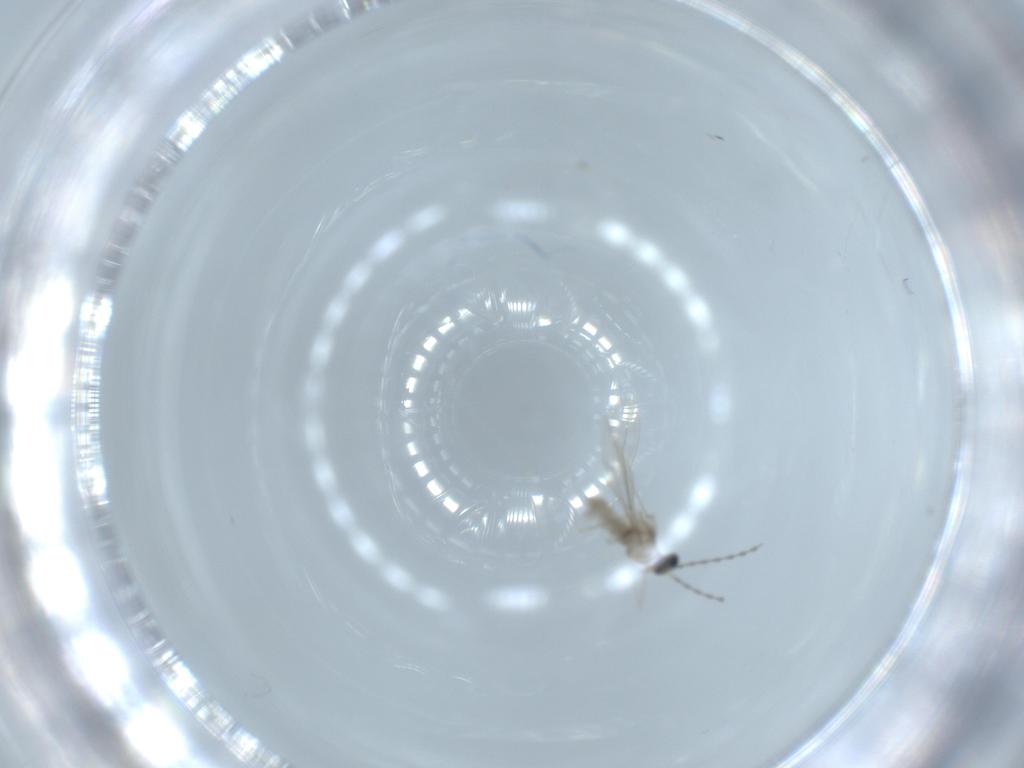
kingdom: Animalia
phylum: Arthropoda
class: Insecta
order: Diptera
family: Cecidomyiidae
